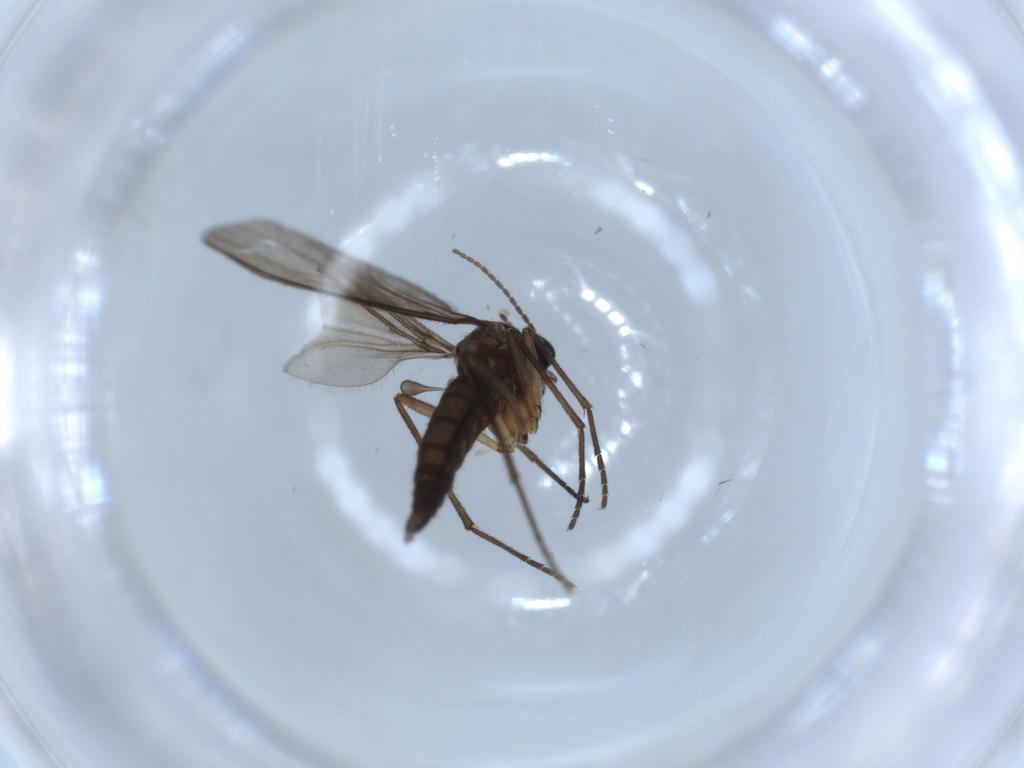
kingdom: Animalia
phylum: Arthropoda
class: Insecta
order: Diptera
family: Sciaridae
